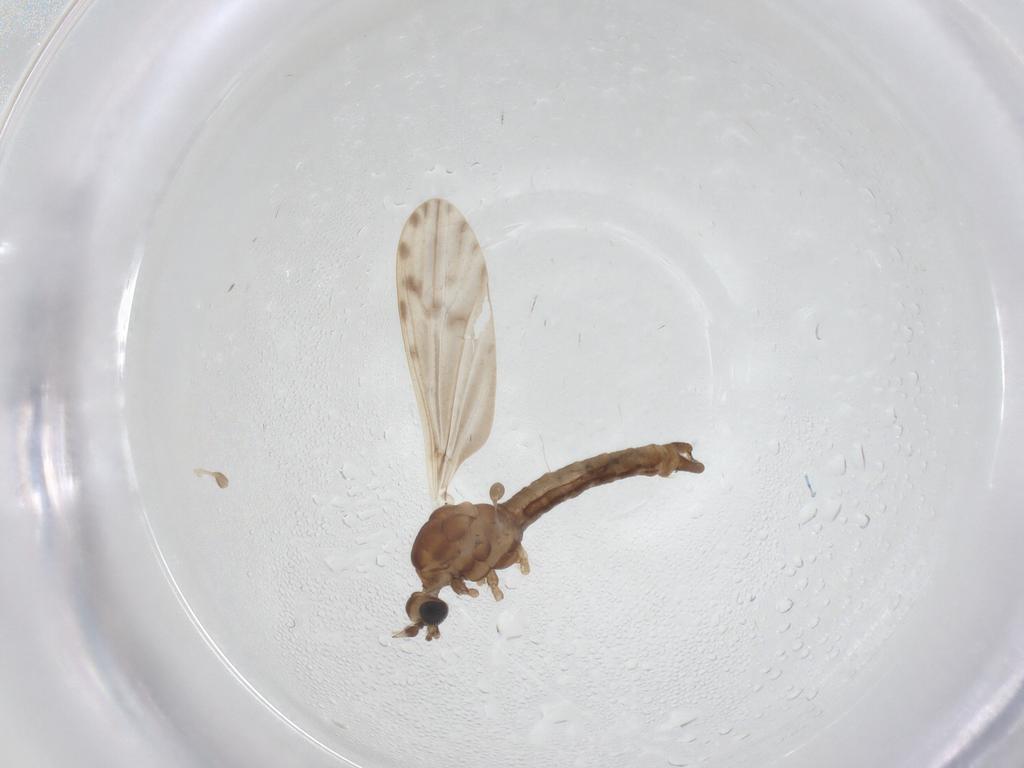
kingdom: Animalia
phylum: Arthropoda
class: Insecta
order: Diptera
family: Limoniidae
